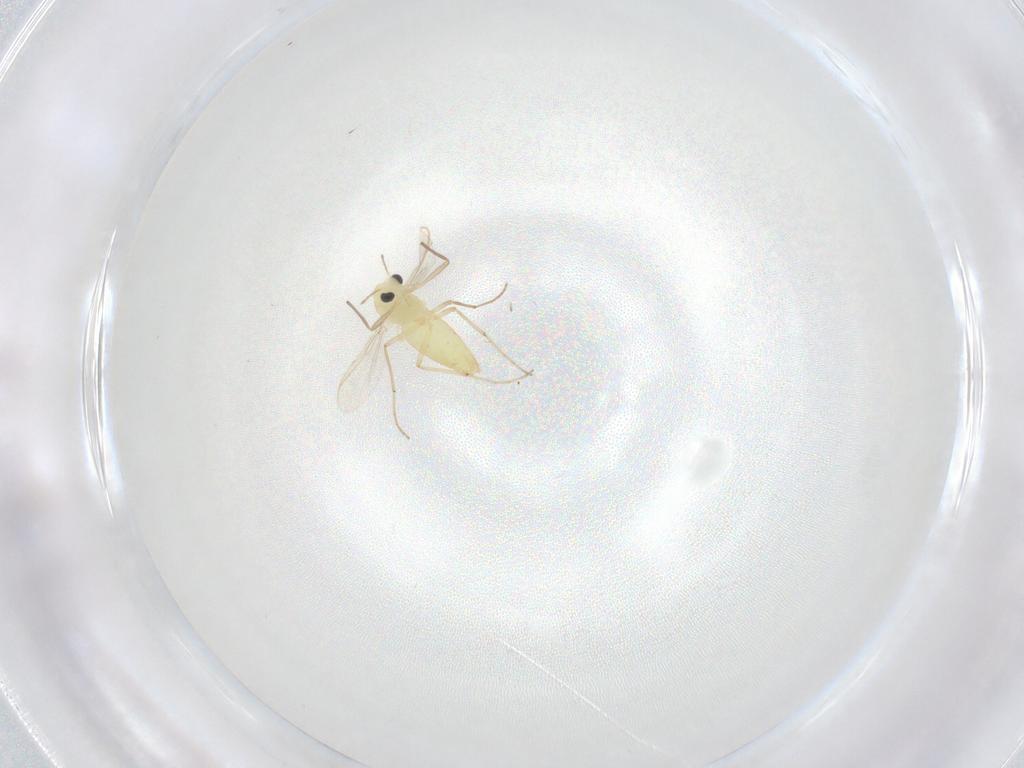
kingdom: Animalia
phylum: Arthropoda
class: Insecta
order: Diptera
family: Chironomidae
